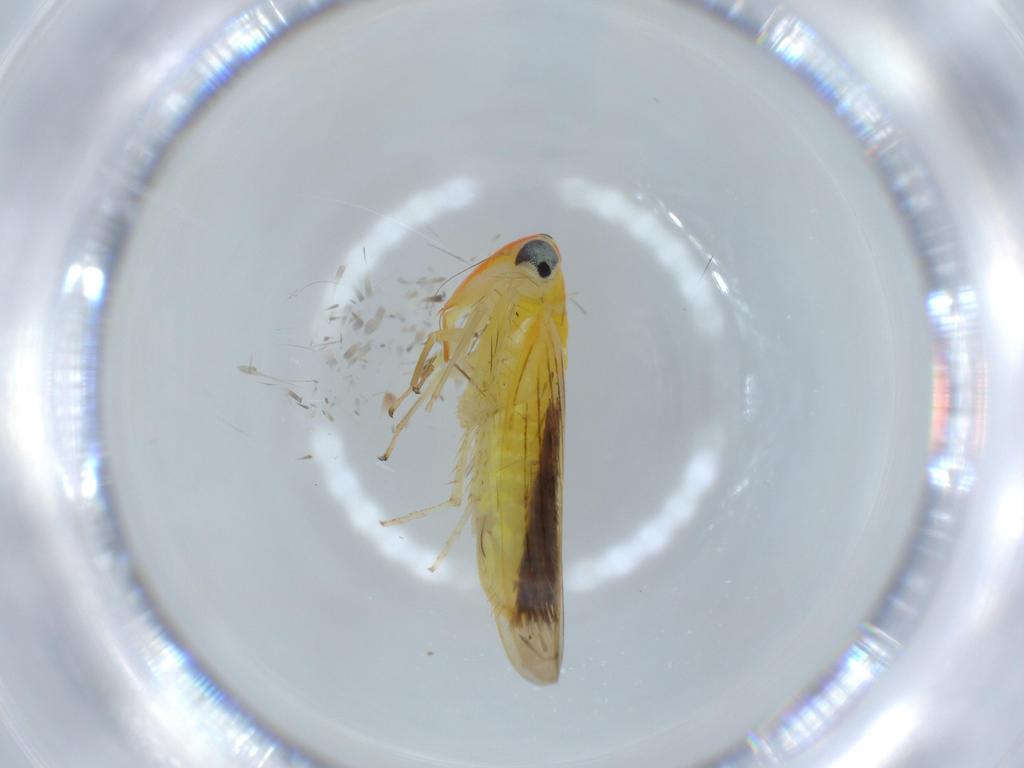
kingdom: Animalia
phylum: Arthropoda
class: Insecta
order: Hemiptera
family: Cicadellidae
